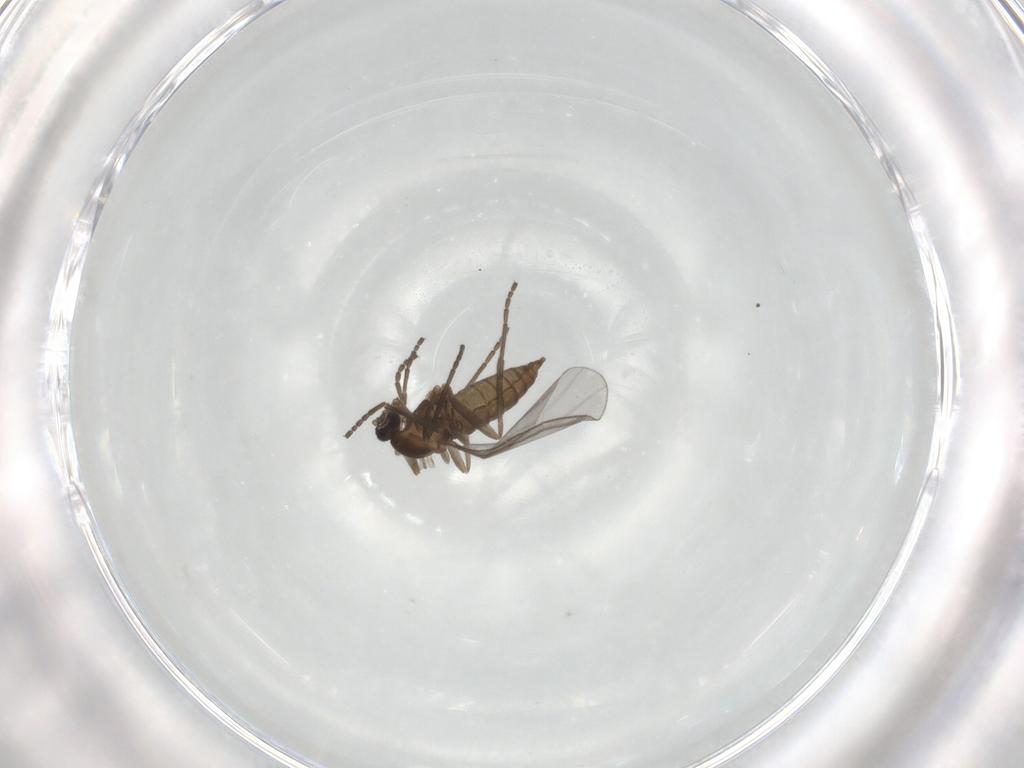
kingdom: Animalia
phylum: Arthropoda
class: Insecta
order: Diptera
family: Cecidomyiidae
